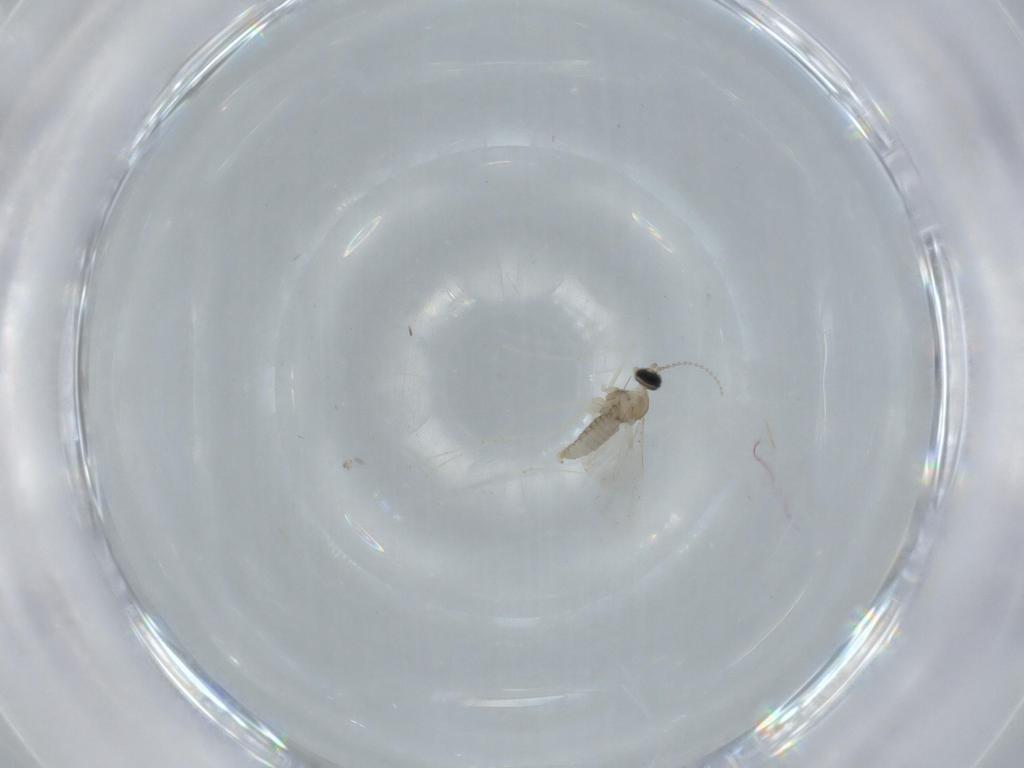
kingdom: Animalia
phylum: Arthropoda
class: Insecta
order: Diptera
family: Cecidomyiidae
